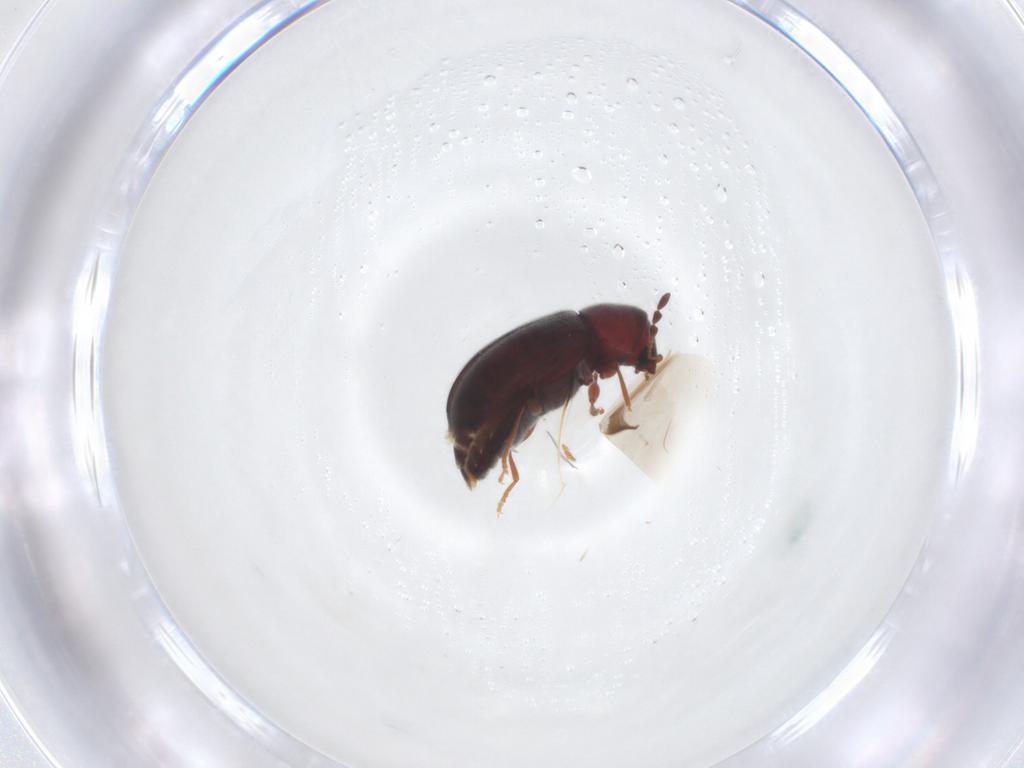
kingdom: Animalia
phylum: Arthropoda
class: Insecta
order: Coleoptera
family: Ptinidae
